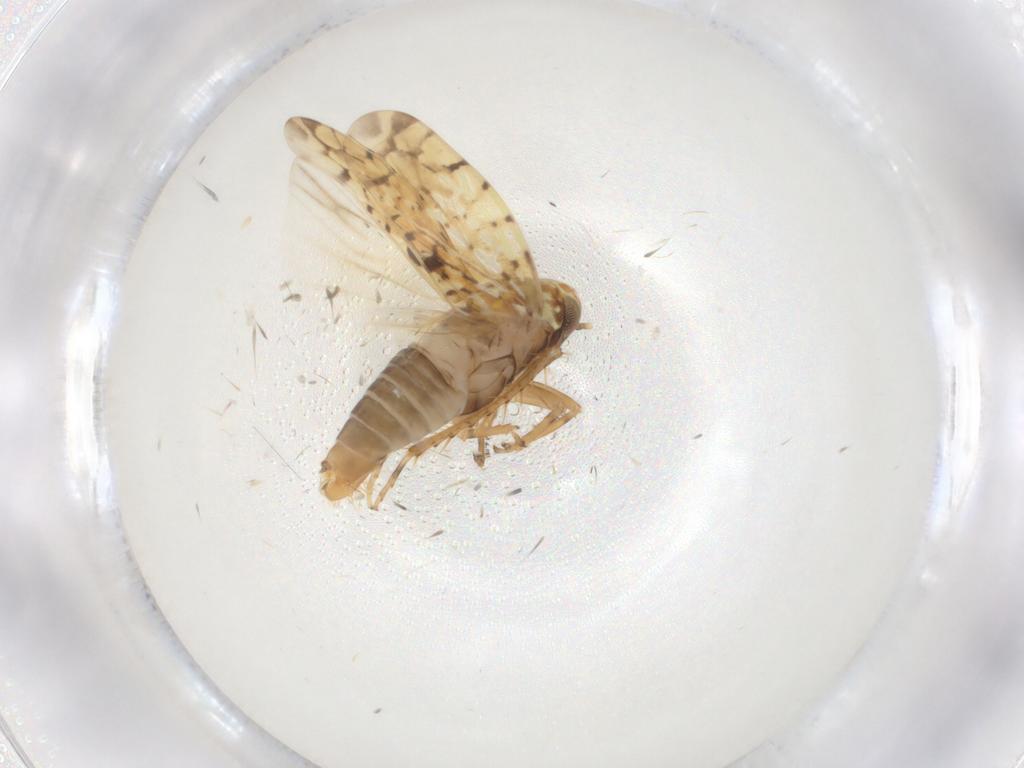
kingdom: Animalia
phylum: Arthropoda
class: Insecta
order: Hemiptera
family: Cicadellidae
